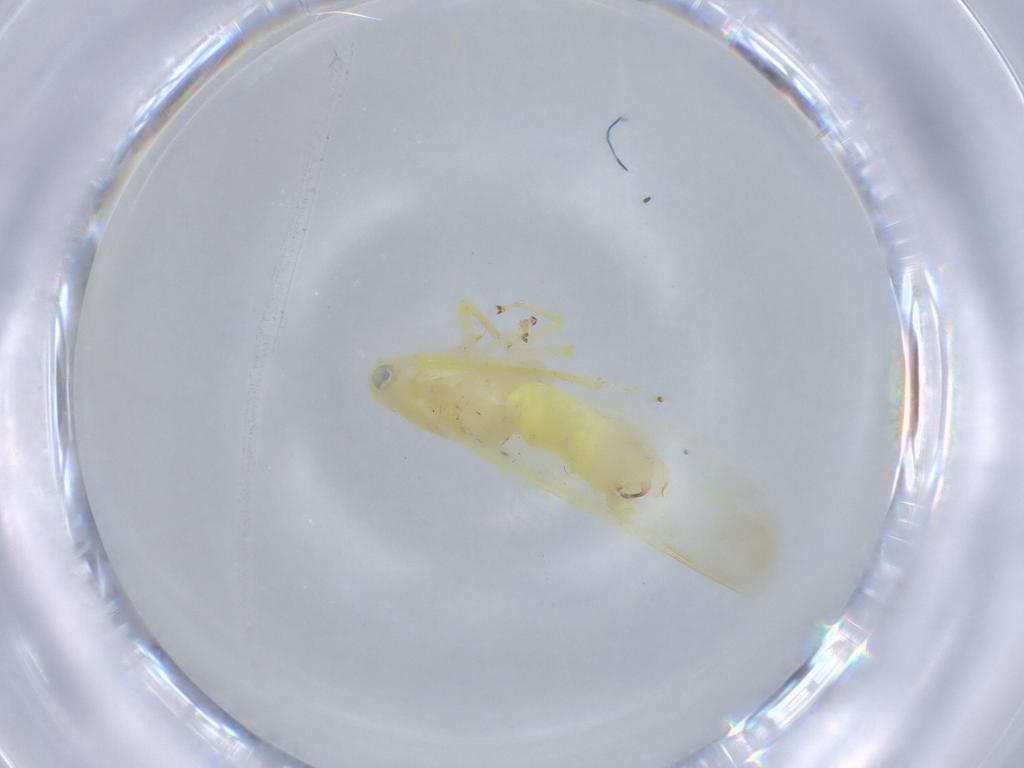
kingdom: Animalia
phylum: Arthropoda
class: Insecta
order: Hemiptera
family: Cicadellidae
